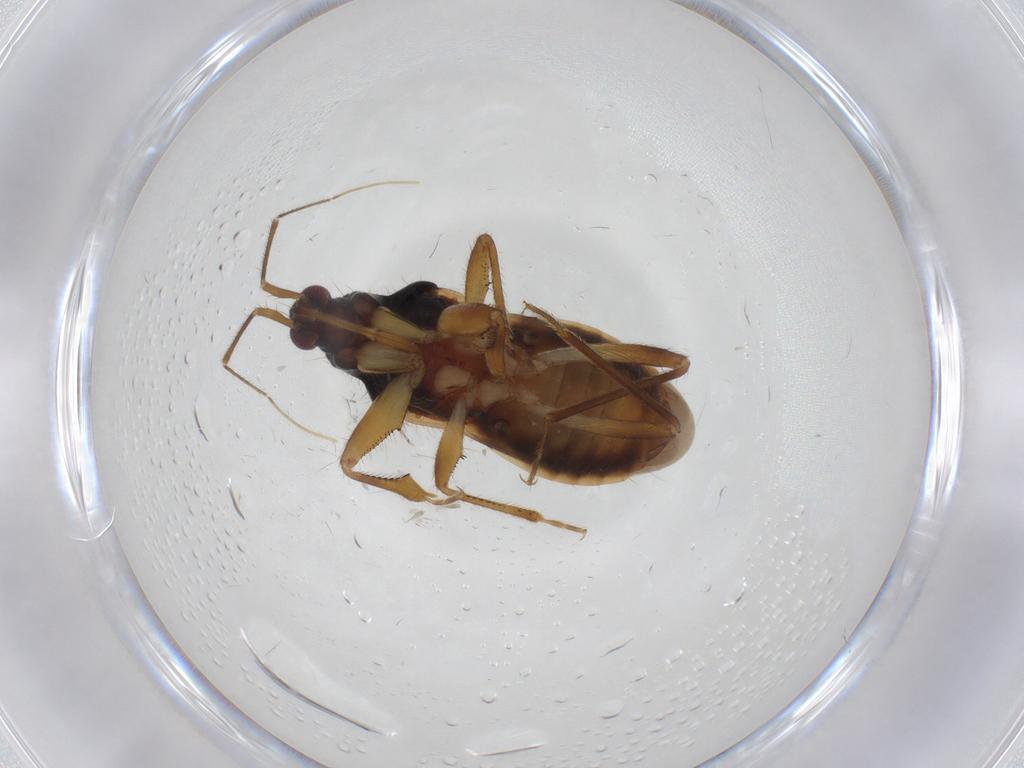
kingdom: Animalia
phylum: Arthropoda
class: Insecta
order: Hemiptera
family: Nabidae
